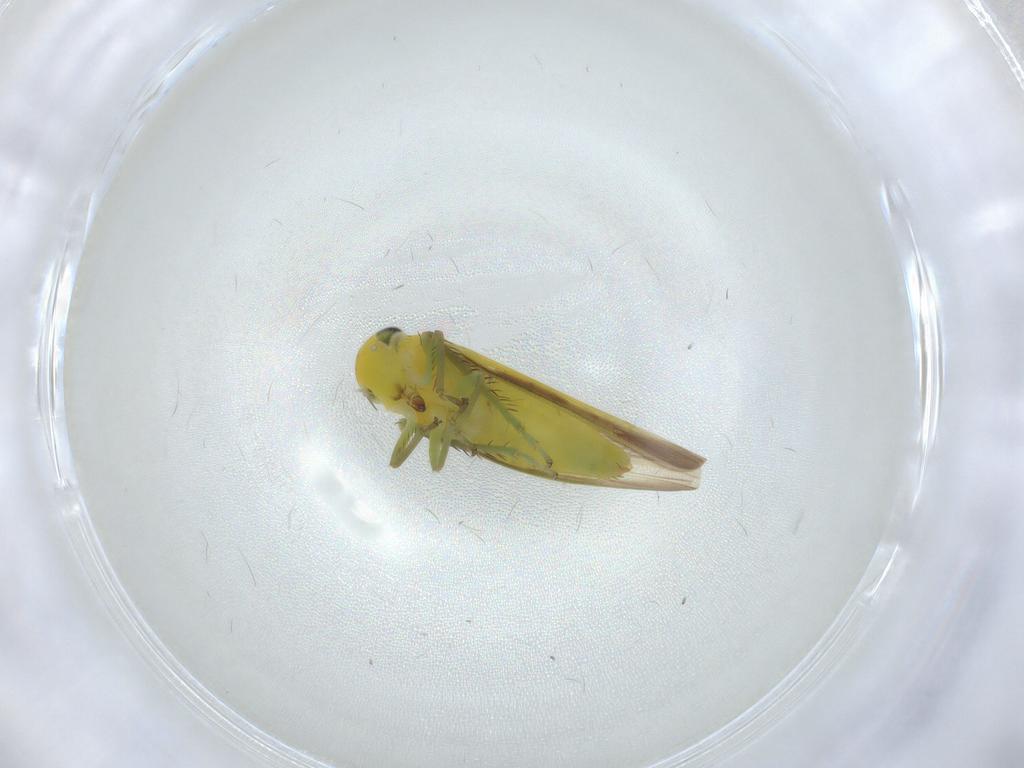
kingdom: Animalia
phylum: Arthropoda
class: Insecta
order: Hemiptera
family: Cicadellidae
